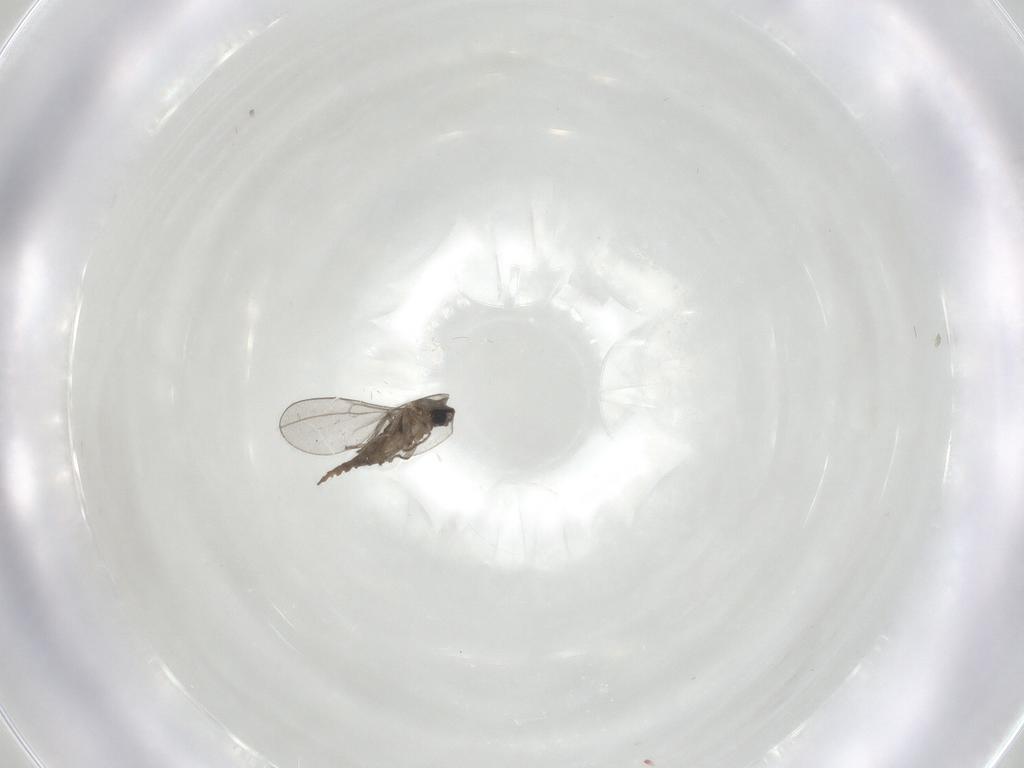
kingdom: Animalia
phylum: Arthropoda
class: Insecta
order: Diptera
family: Cecidomyiidae
